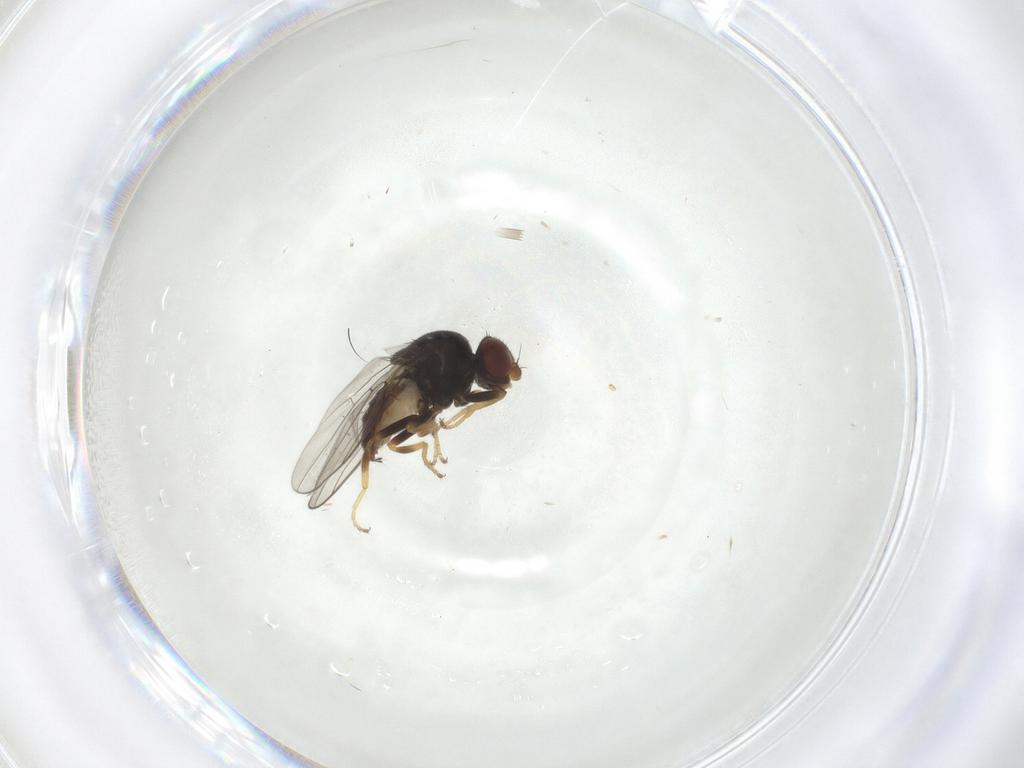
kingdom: Animalia
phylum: Arthropoda
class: Insecta
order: Diptera
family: Chloropidae
